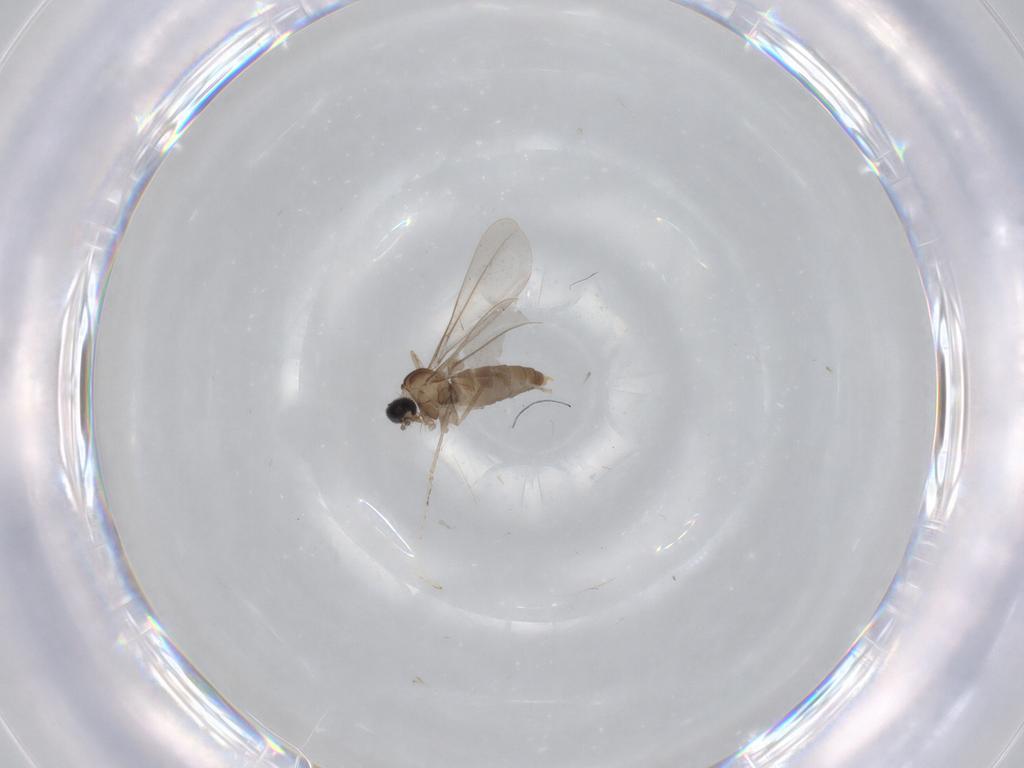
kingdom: Animalia
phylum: Arthropoda
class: Insecta
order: Diptera
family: Cecidomyiidae
